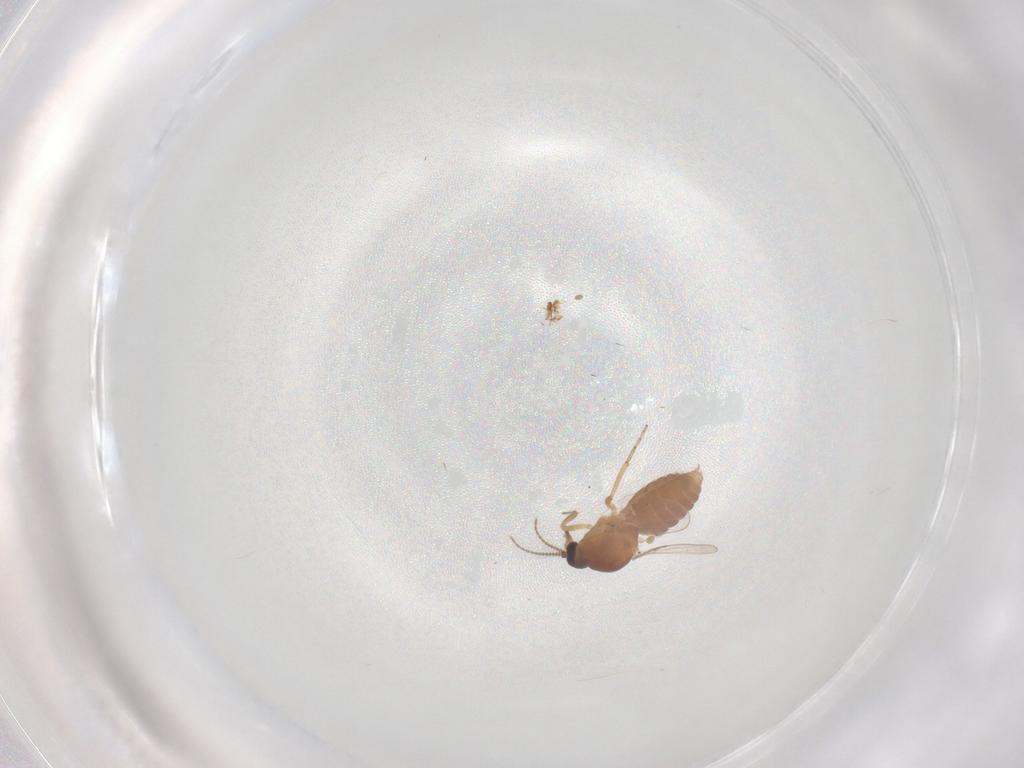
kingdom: Animalia
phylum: Arthropoda
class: Insecta
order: Diptera
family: Ceratopogonidae
